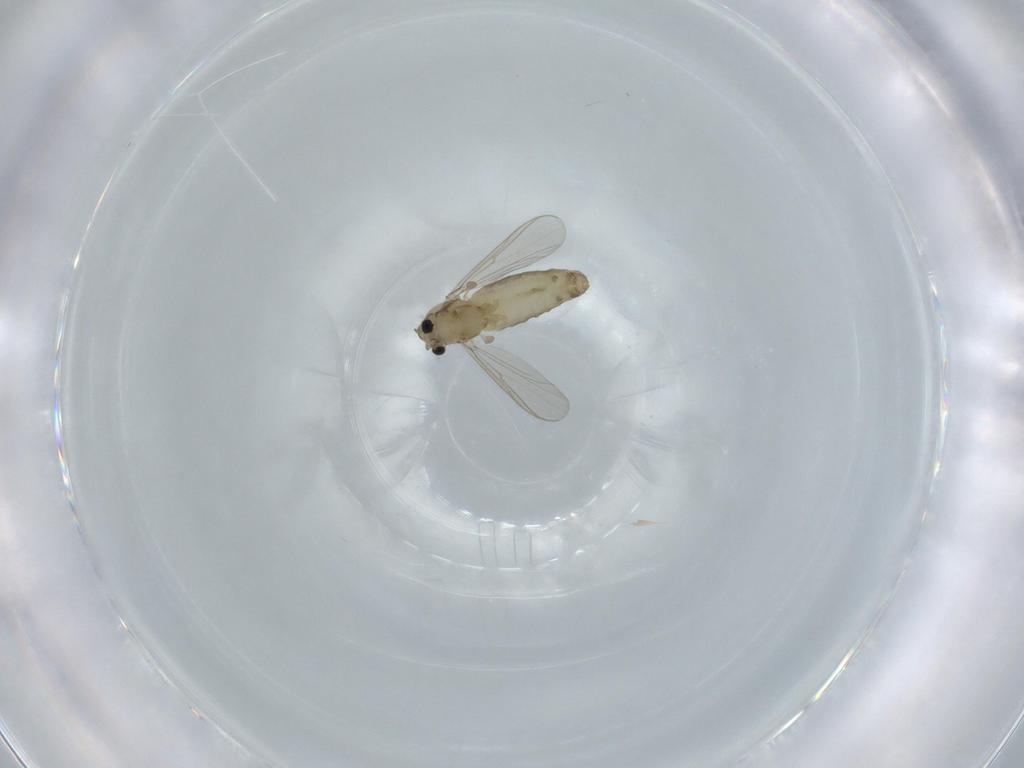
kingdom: Animalia
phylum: Arthropoda
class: Insecta
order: Diptera
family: Chironomidae
